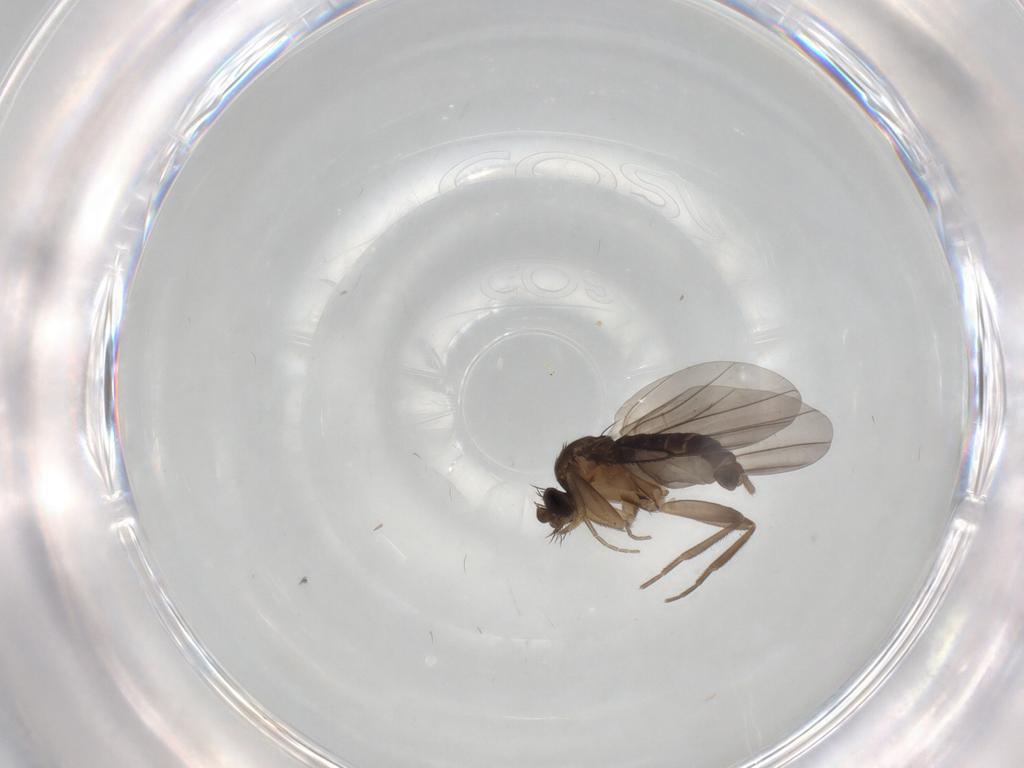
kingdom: Animalia
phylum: Arthropoda
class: Insecta
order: Diptera
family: Phoridae
